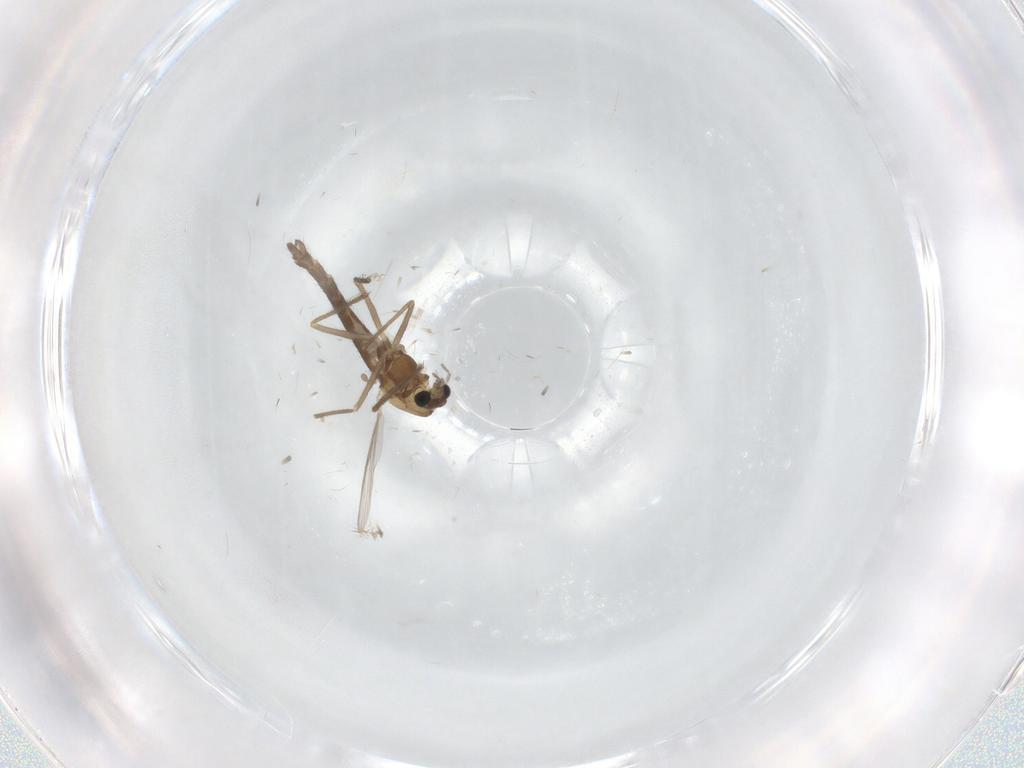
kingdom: Animalia
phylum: Arthropoda
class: Insecta
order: Diptera
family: Chironomidae
